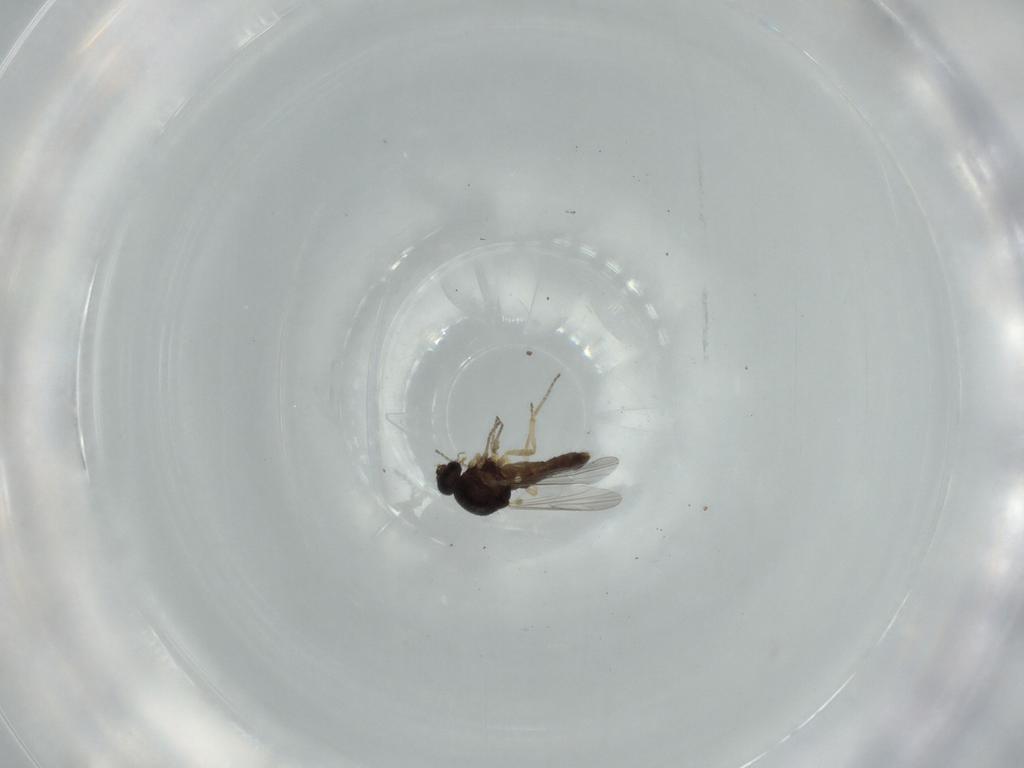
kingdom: Animalia
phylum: Arthropoda
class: Insecta
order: Diptera
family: Ceratopogonidae
